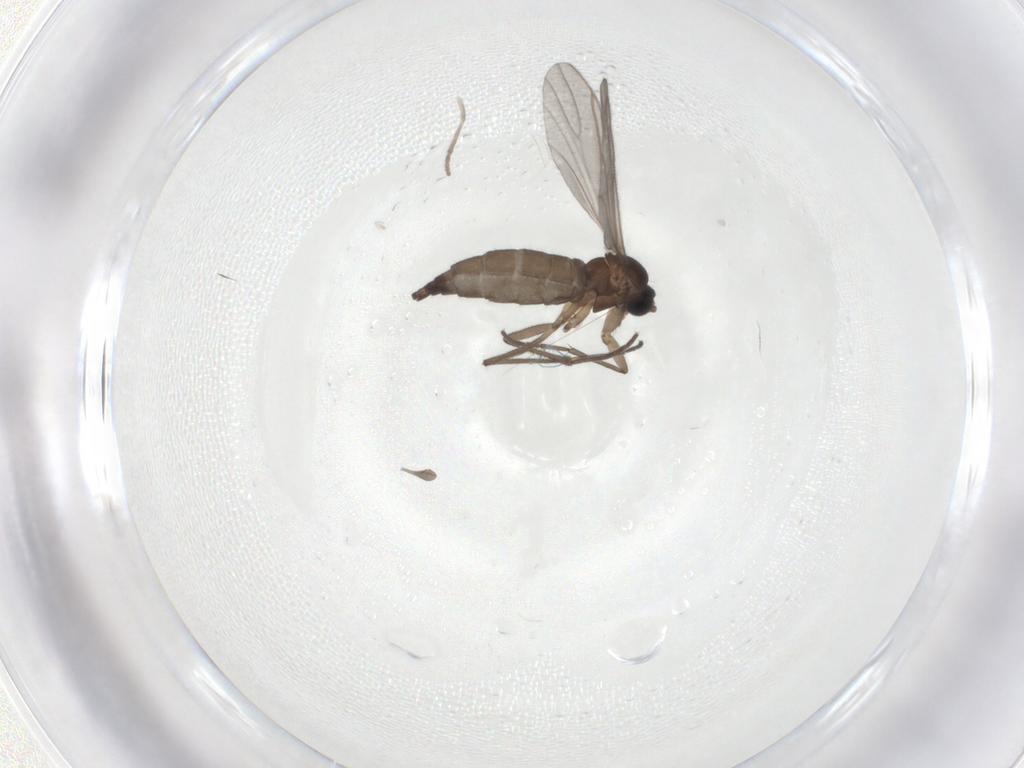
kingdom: Animalia
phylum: Arthropoda
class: Insecta
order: Diptera
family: Sciaridae
